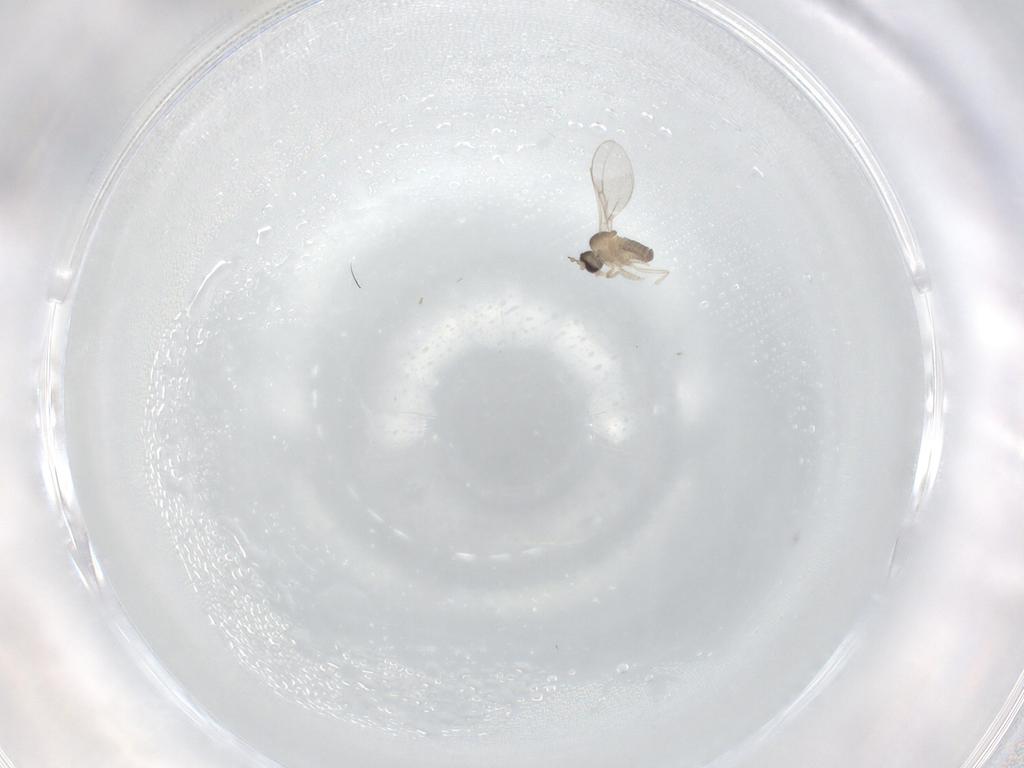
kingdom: Animalia
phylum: Arthropoda
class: Insecta
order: Diptera
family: Cecidomyiidae
